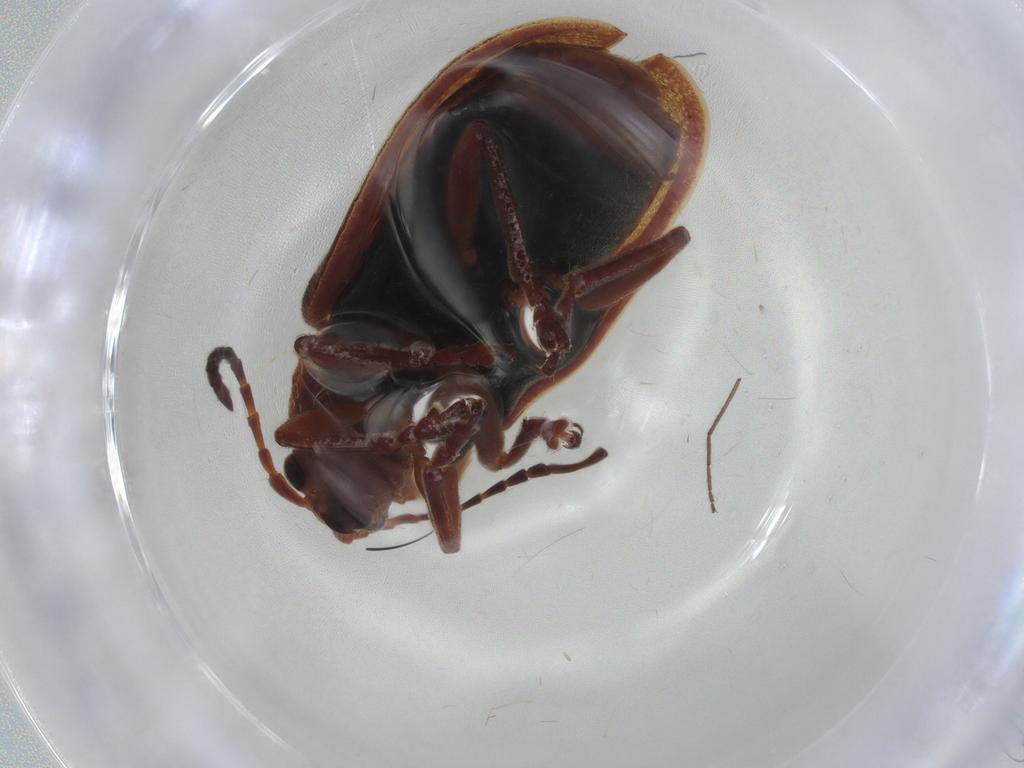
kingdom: Animalia
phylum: Arthropoda
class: Insecta
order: Coleoptera
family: Chrysomelidae
